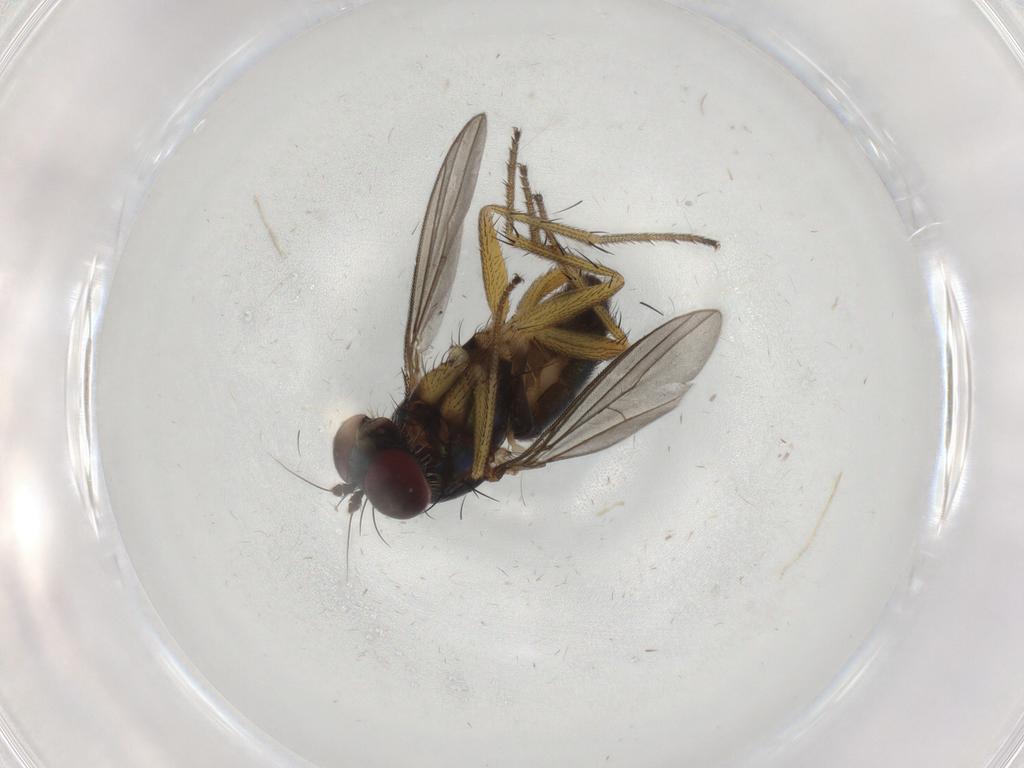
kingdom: Animalia
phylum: Arthropoda
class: Insecta
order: Diptera
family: Dolichopodidae
